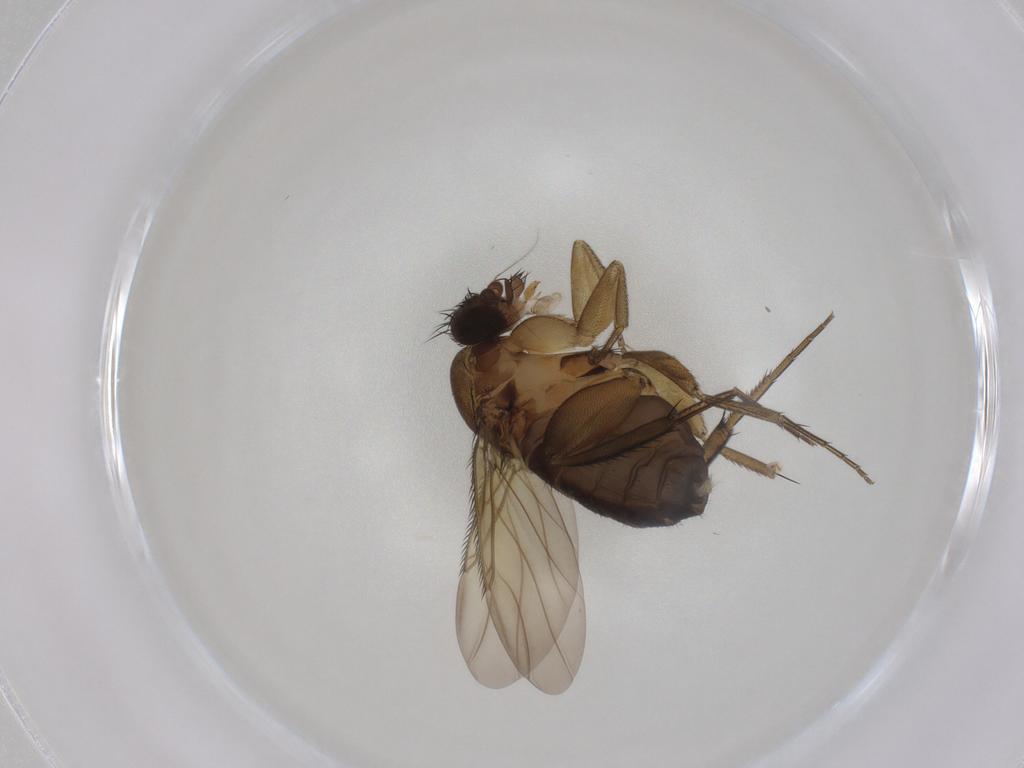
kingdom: Animalia
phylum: Arthropoda
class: Insecta
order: Diptera
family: Phoridae
